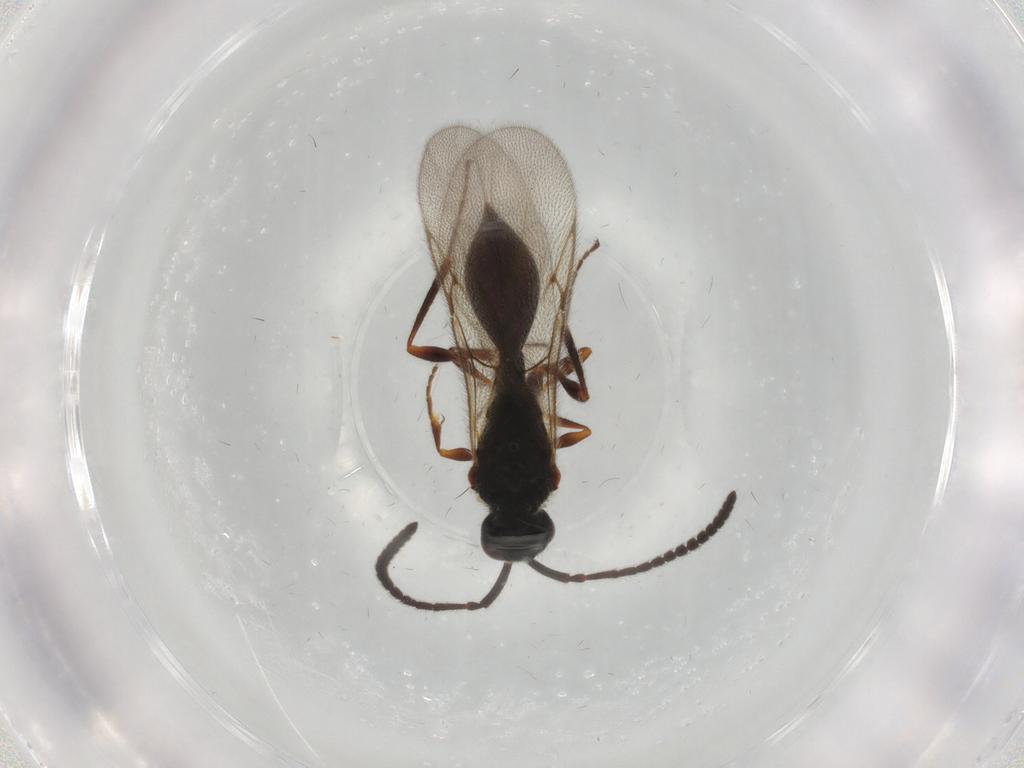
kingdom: Animalia
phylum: Arthropoda
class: Insecta
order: Hymenoptera
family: Diapriidae
